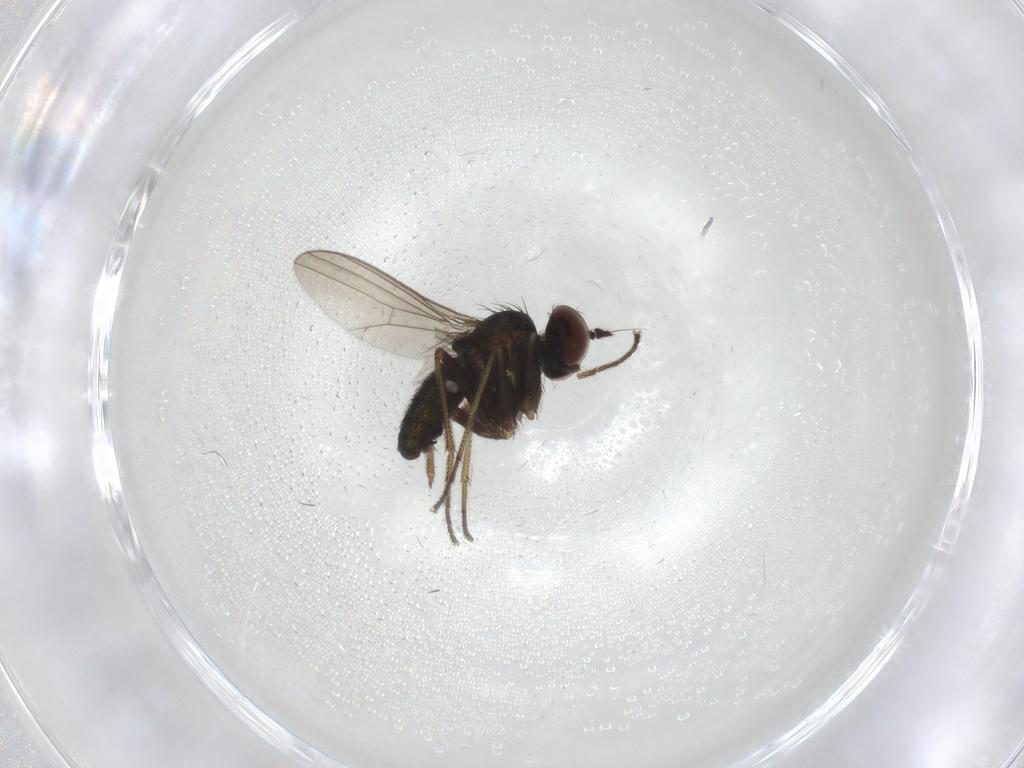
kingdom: Animalia
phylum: Arthropoda
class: Insecta
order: Diptera
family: Dolichopodidae
